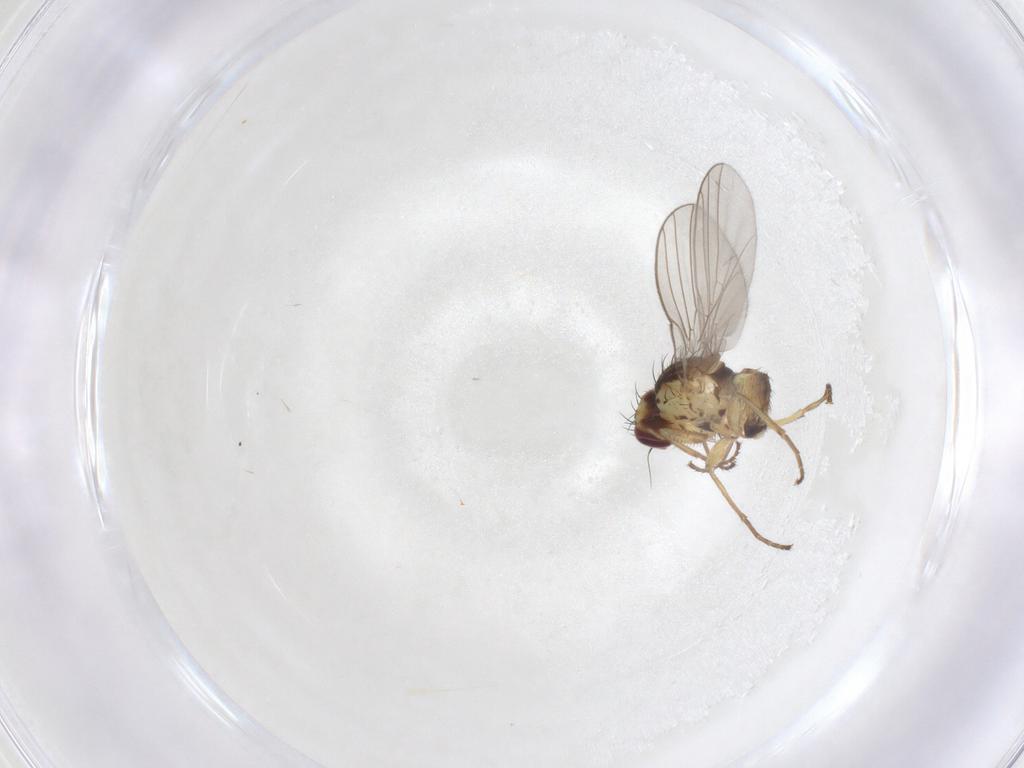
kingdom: Animalia
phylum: Arthropoda
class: Insecta
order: Diptera
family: Agromyzidae
